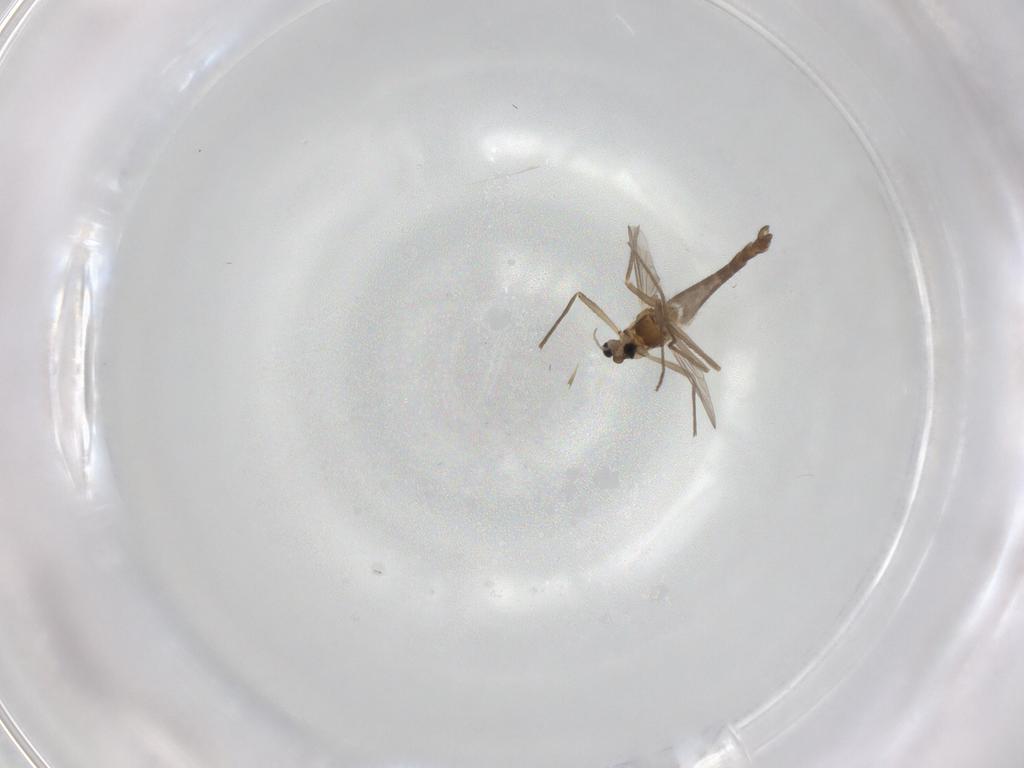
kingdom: Animalia
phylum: Arthropoda
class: Insecta
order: Diptera
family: Chironomidae
